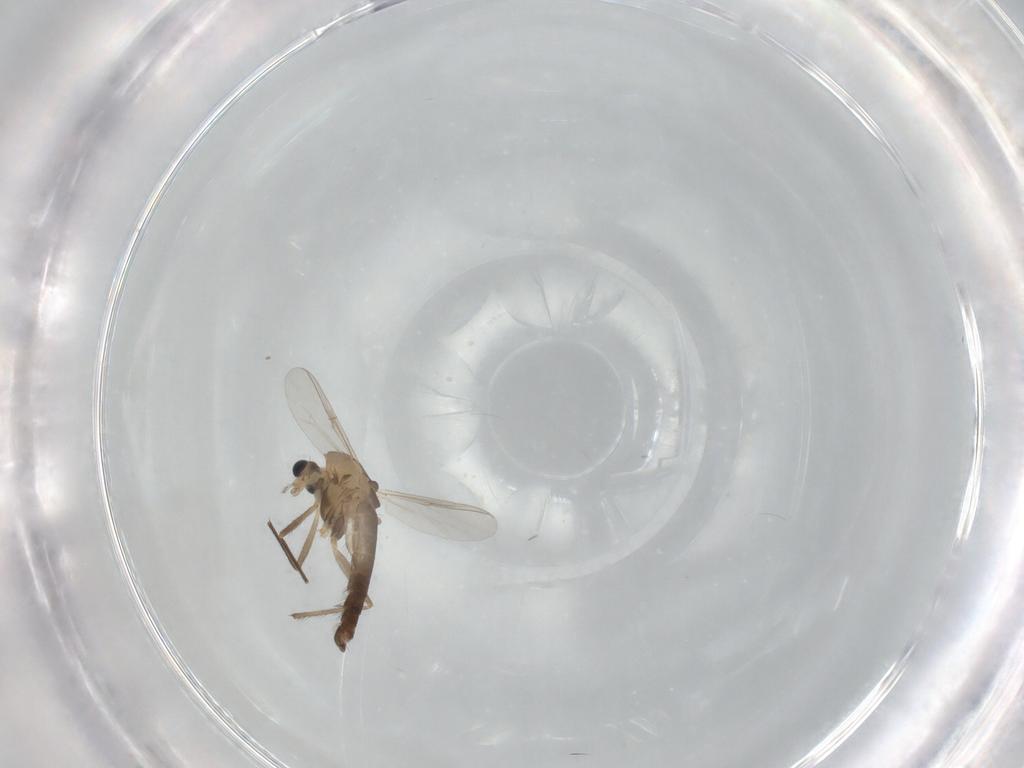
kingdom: Animalia
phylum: Arthropoda
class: Insecta
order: Diptera
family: Chironomidae
